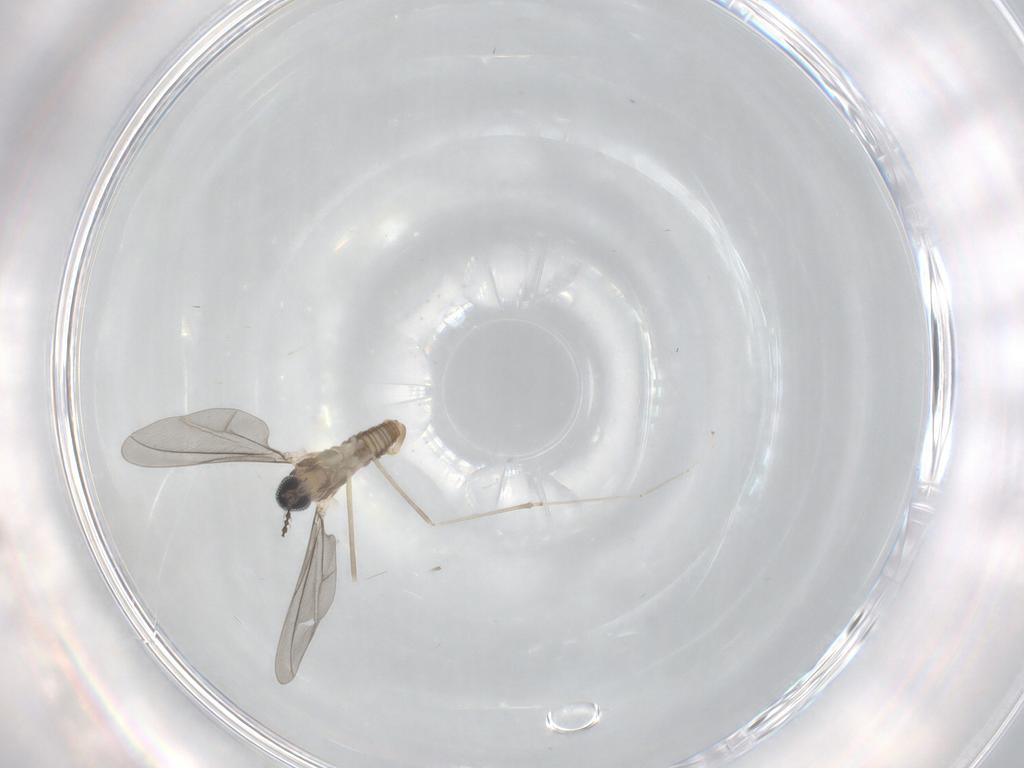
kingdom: Animalia
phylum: Arthropoda
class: Insecta
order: Diptera
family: Cecidomyiidae
